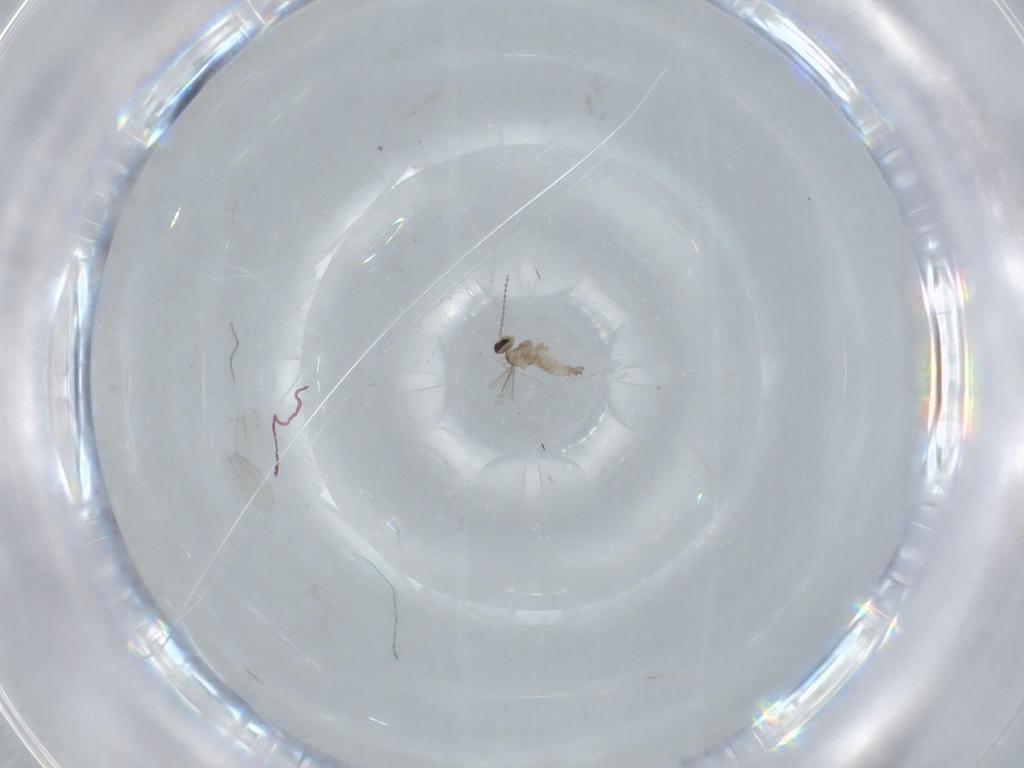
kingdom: Animalia
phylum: Arthropoda
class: Insecta
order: Diptera
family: Cecidomyiidae
